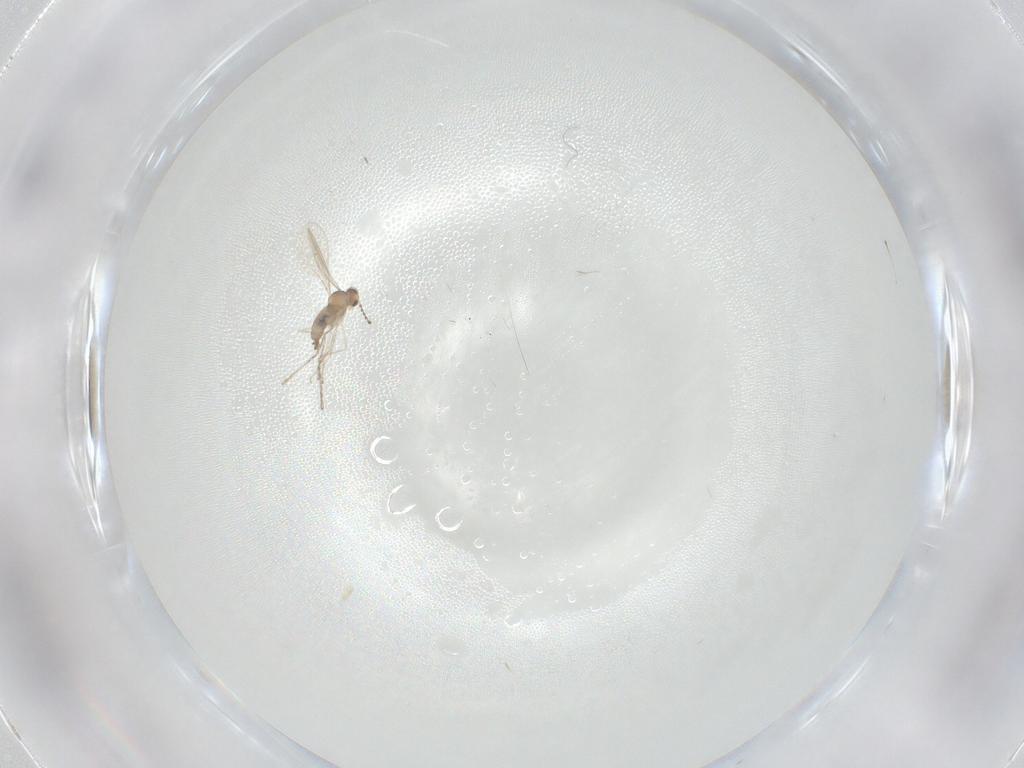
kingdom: Animalia
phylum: Arthropoda
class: Insecta
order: Diptera
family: Cecidomyiidae
